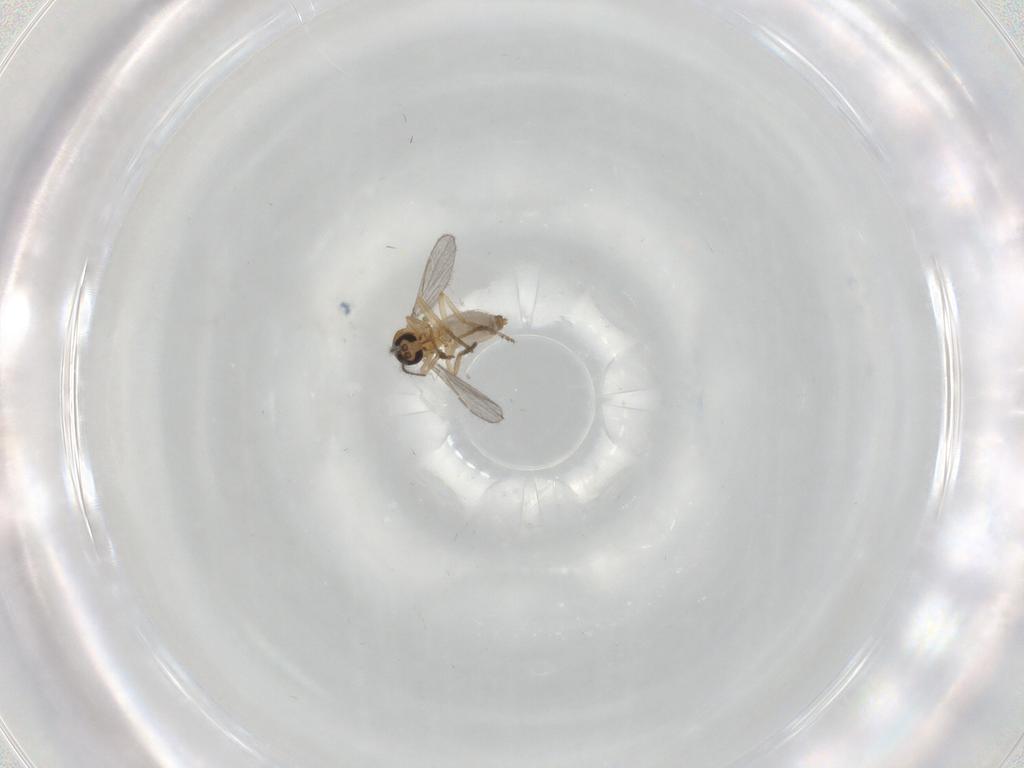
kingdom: Animalia
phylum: Arthropoda
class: Insecta
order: Diptera
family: Ceratopogonidae
